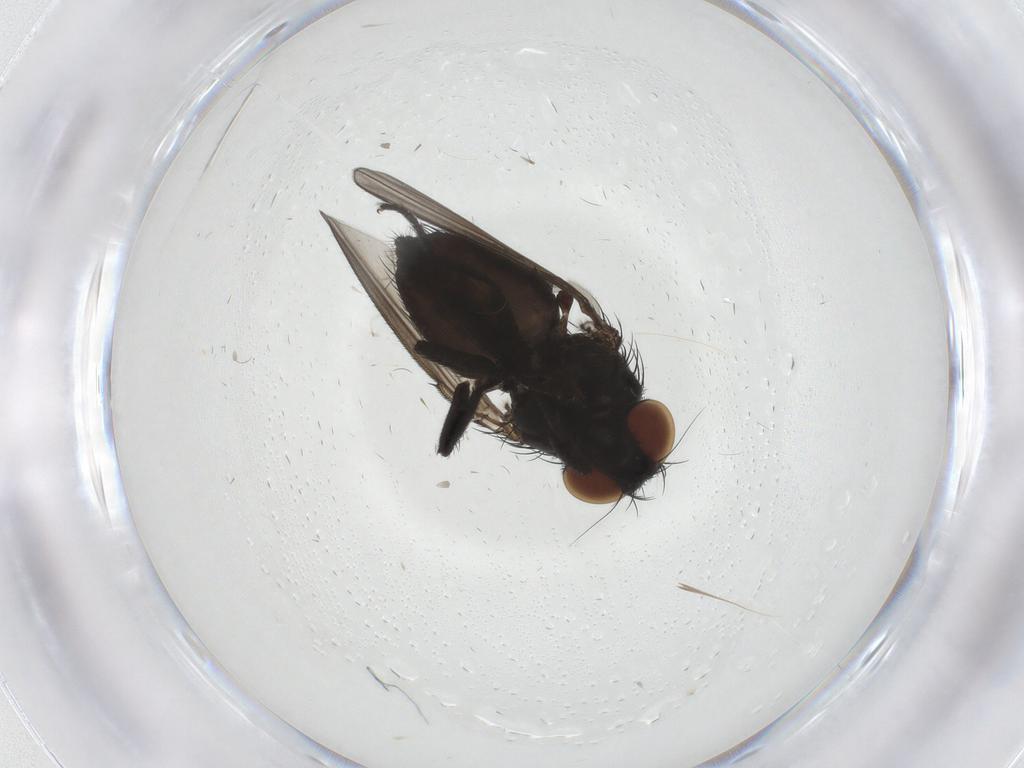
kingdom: Animalia
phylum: Arthropoda
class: Insecta
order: Diptera
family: Milichiidae
